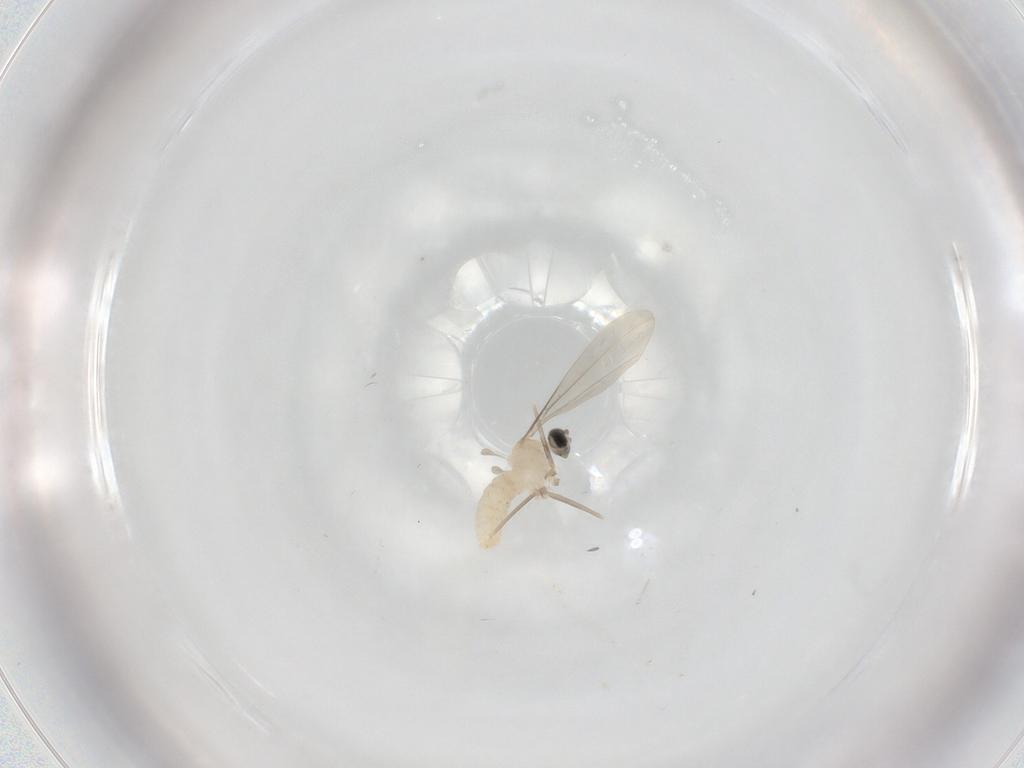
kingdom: Animalia
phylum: Arthropoda
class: Insecta
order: Diptera
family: Cecidomyiidae
